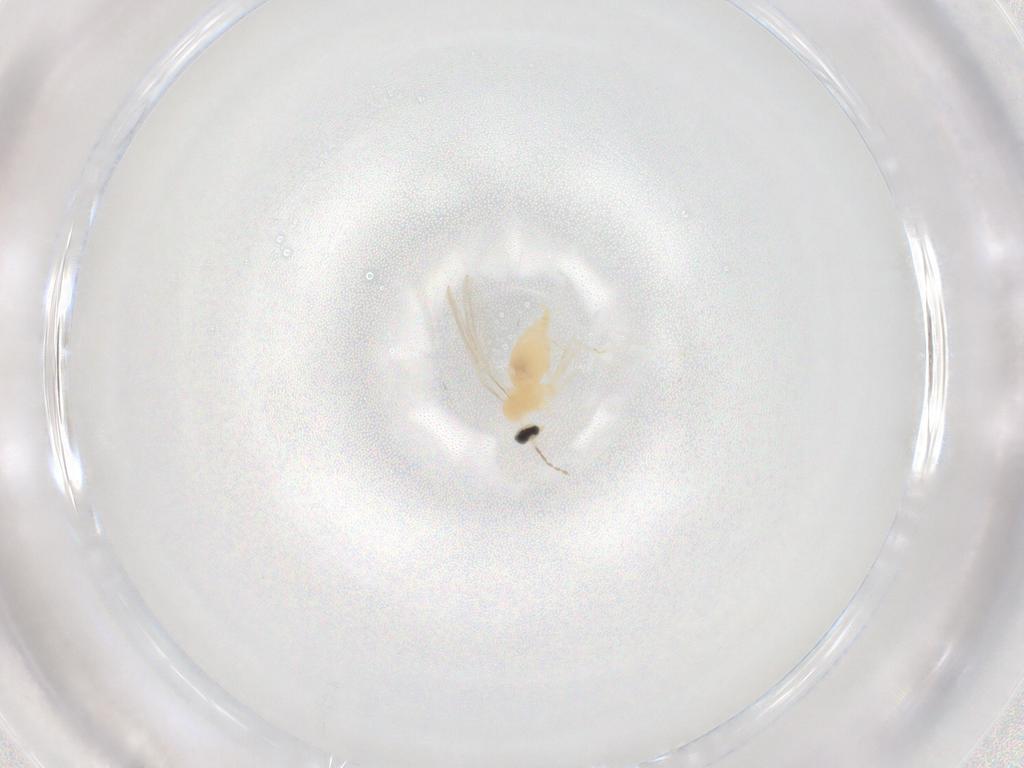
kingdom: Animalia
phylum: Arthropoda
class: Insecta
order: Diptera
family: Cecidomyiidae
